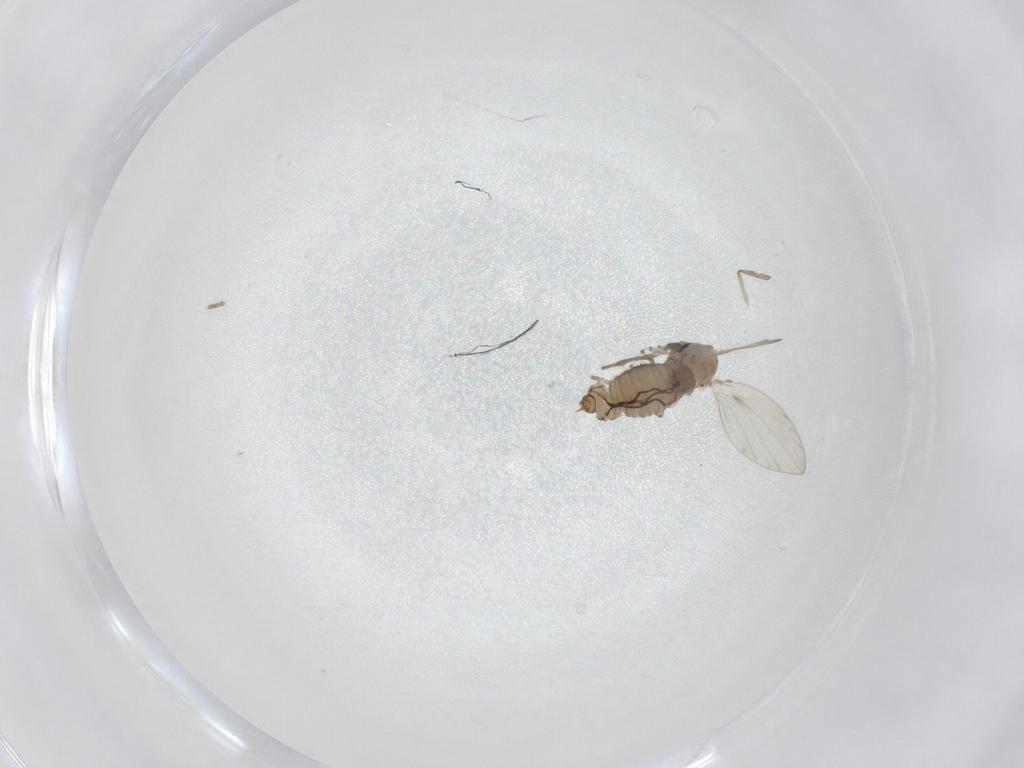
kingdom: Animalia
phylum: Arthropoda
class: Insecta
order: Diptera
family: Psychodidae
